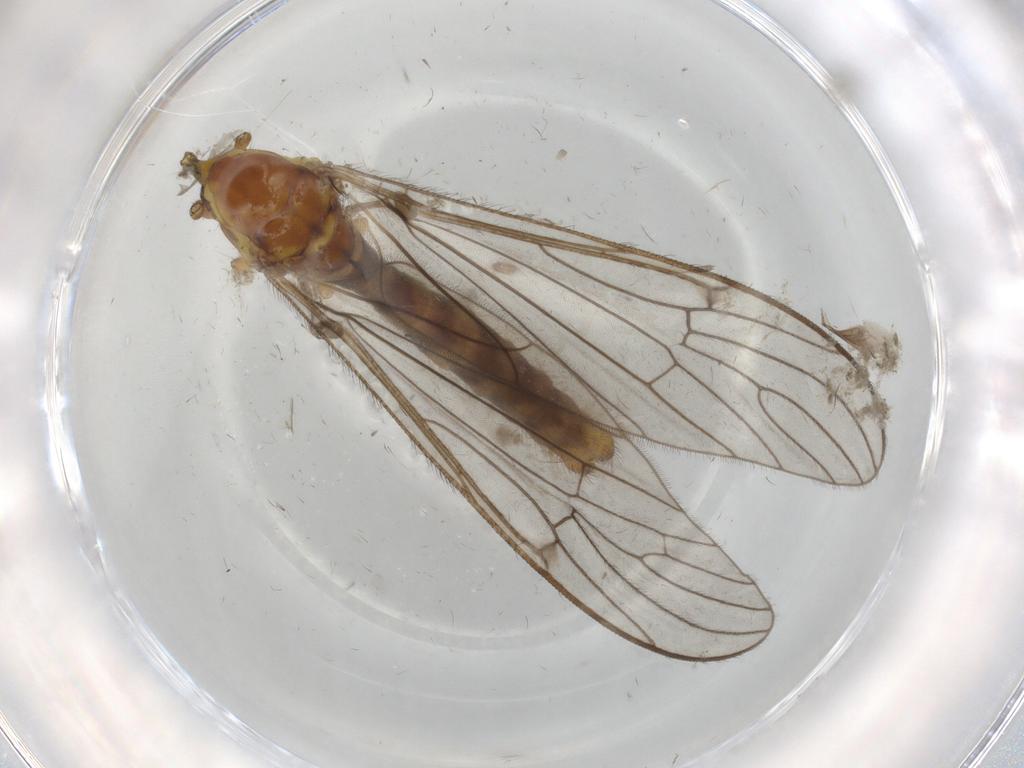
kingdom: Animalia
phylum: Arthropoda
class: Insecta
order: Diptera
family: Limoniidae
